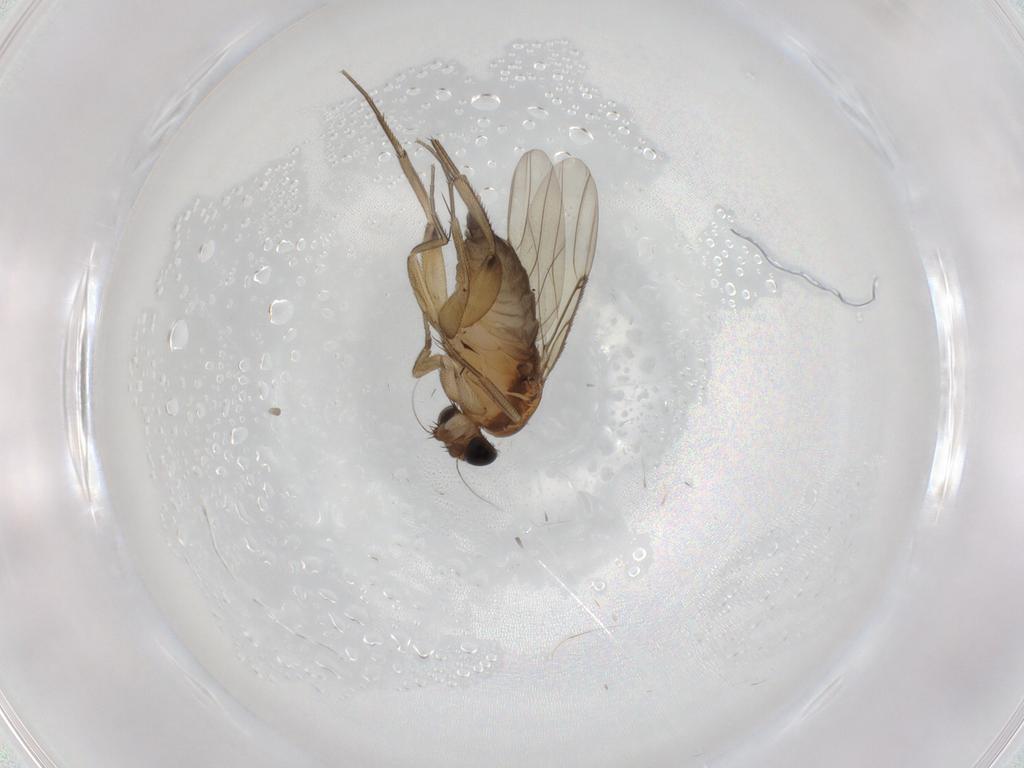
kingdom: Animalia
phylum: Arthropoda
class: Insecta
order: Diptera
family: Phoridae
